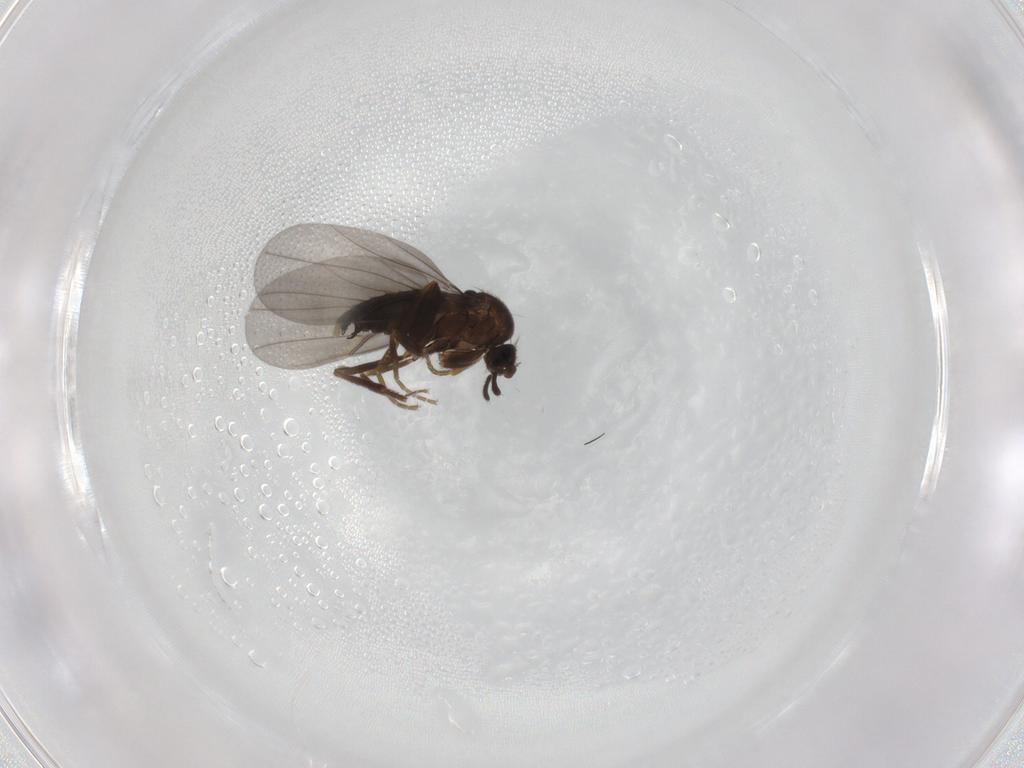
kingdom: Animalia
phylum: Arthropoda
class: Insecta
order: Diptera
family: Phoridae
